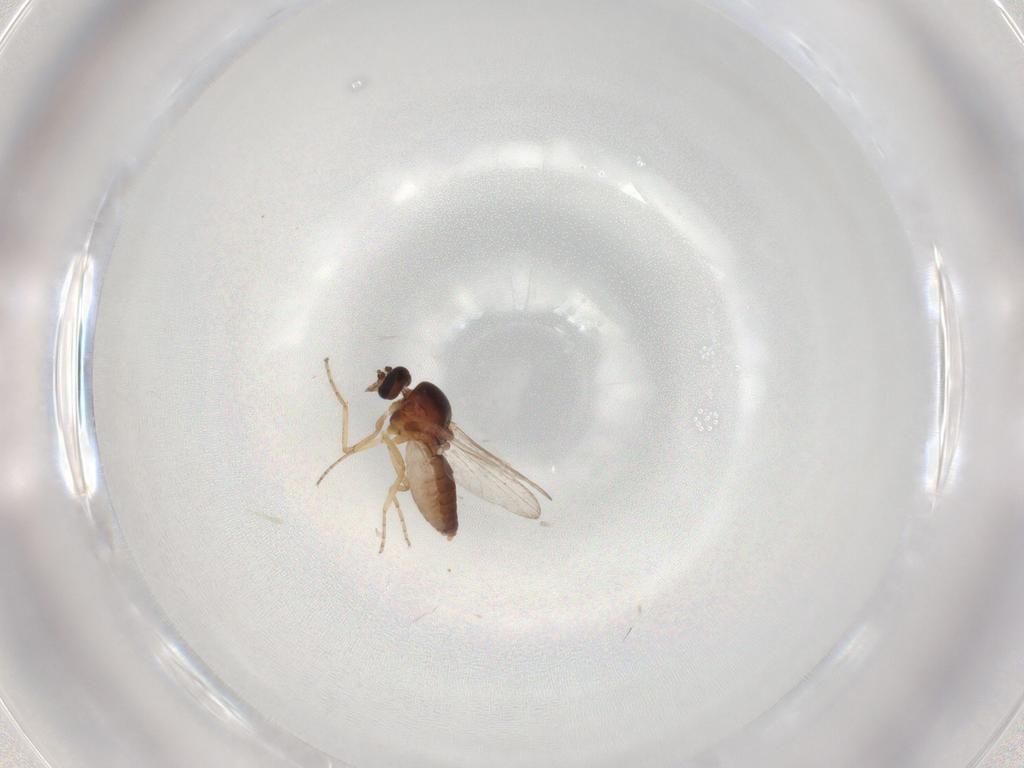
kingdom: Animalia
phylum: Arthropoda
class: Insecta
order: Diptera
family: Ceratopogonidae
